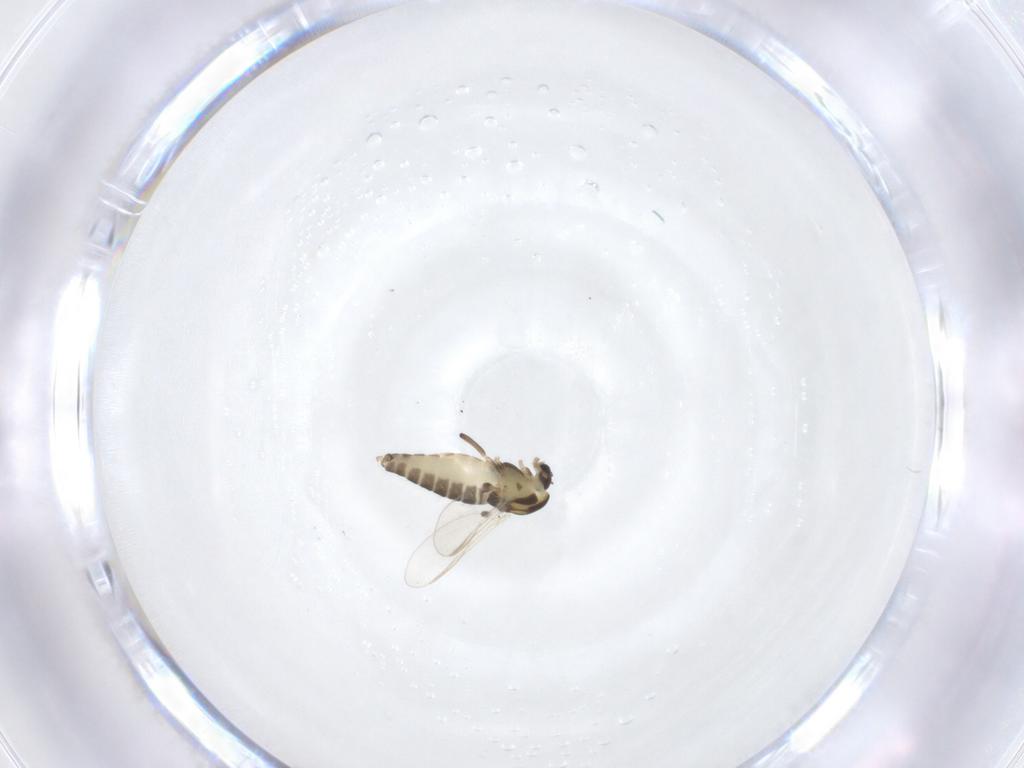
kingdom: Animalia
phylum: Arthropoda
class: Insecta
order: Diptera
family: Chironomidae
